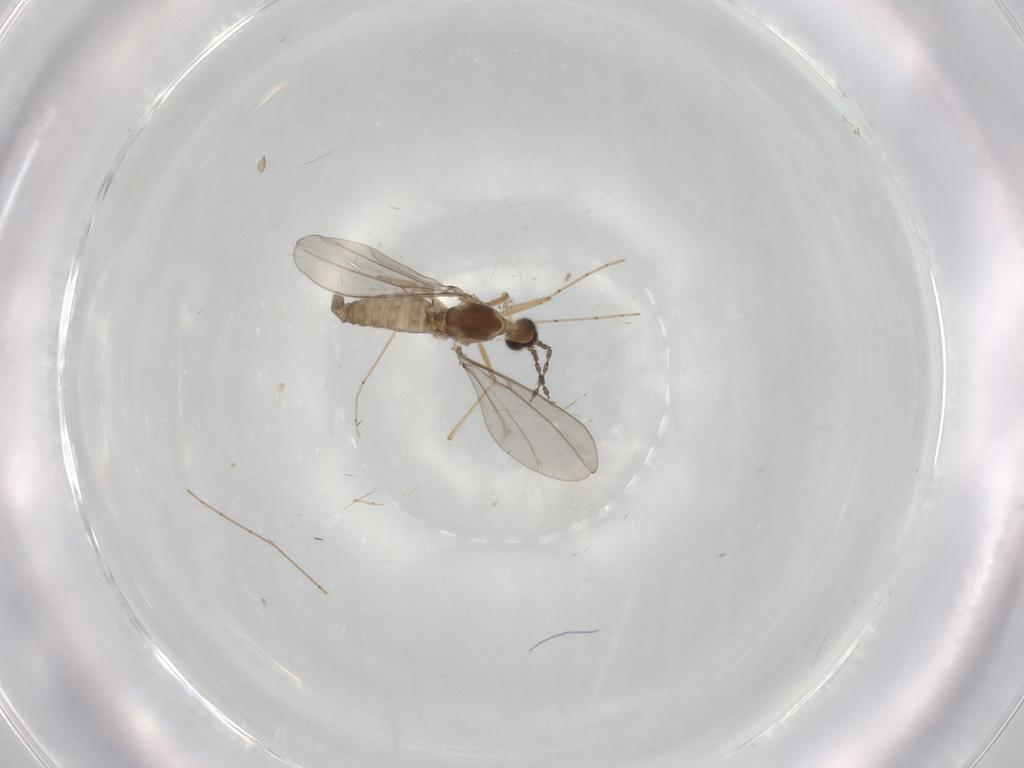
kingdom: Animalia
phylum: Arthropoda
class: Insecta
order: Diptera
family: Cecidomyiidae
